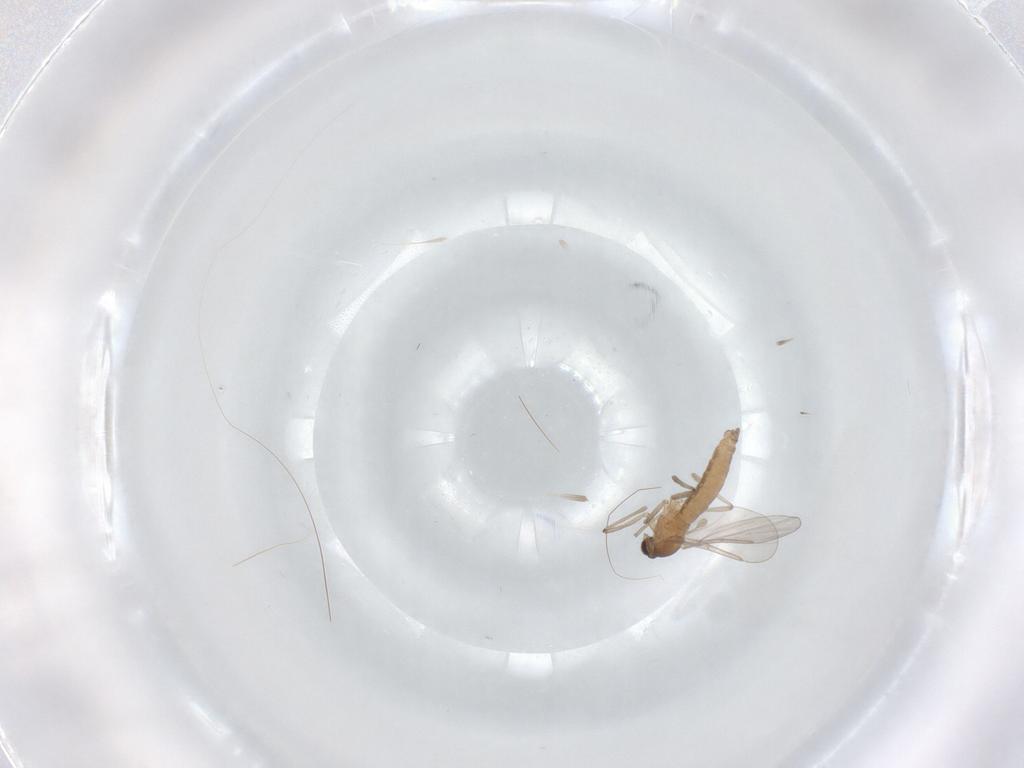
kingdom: Animalia
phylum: Arthropoda
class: Insecta
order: Diptera
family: Cecidomyiidae
